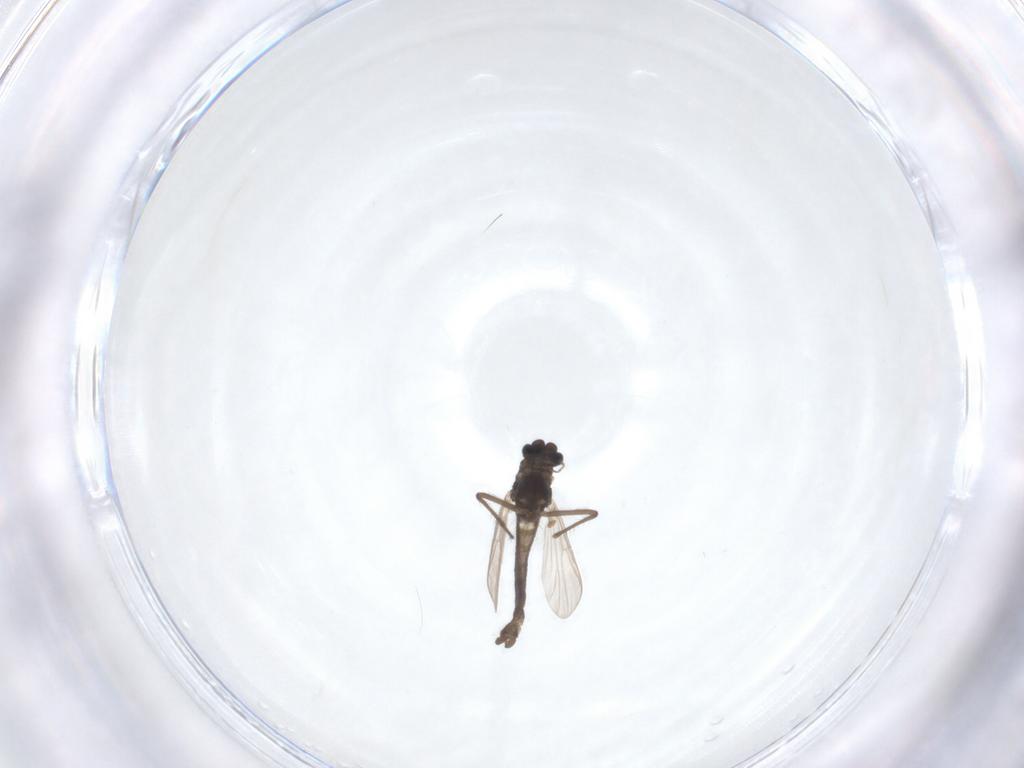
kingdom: Animalia
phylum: Arthropoda
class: Insecta
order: Diptera
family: Chironomidae
